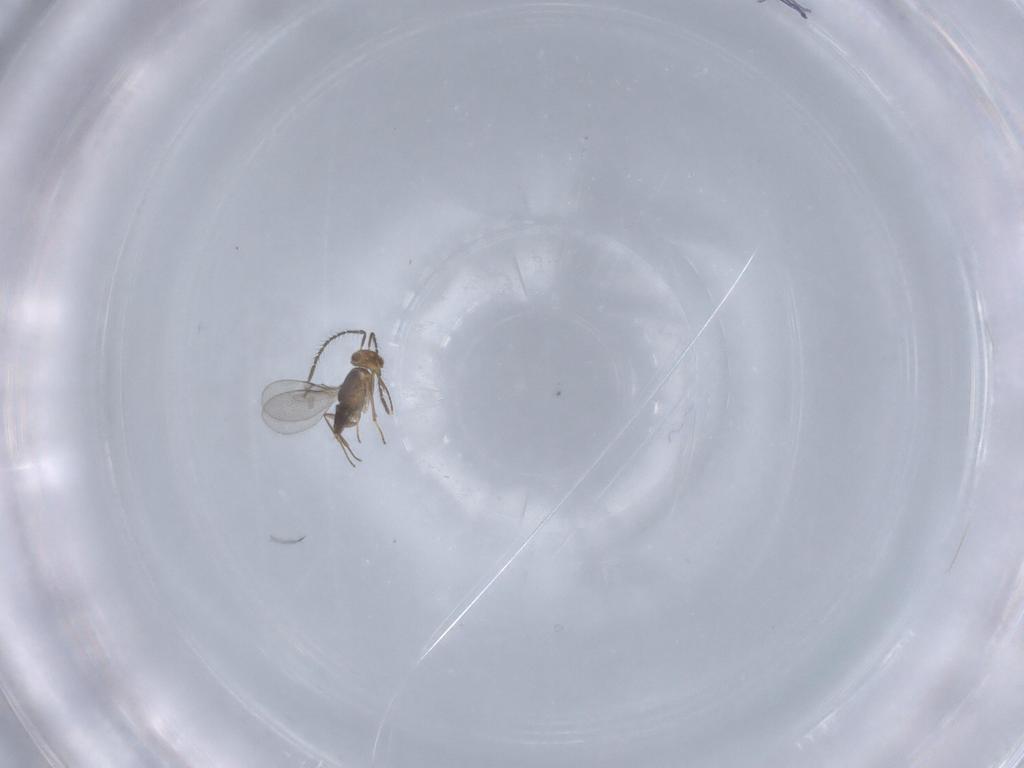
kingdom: Animalia
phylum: Arthropoda
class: Insecta
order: Hymenoptera
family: Encyrtidae
